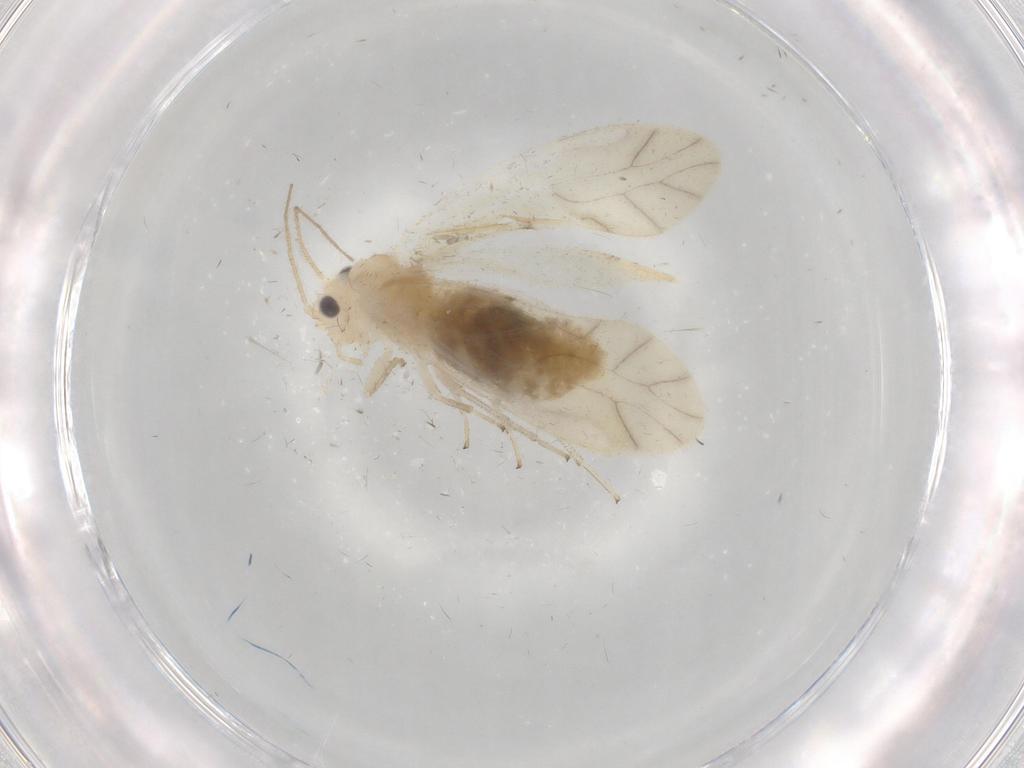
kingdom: Animalia
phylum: Arthropoda
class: Insecta
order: Psocodea
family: Caeciliusidae
